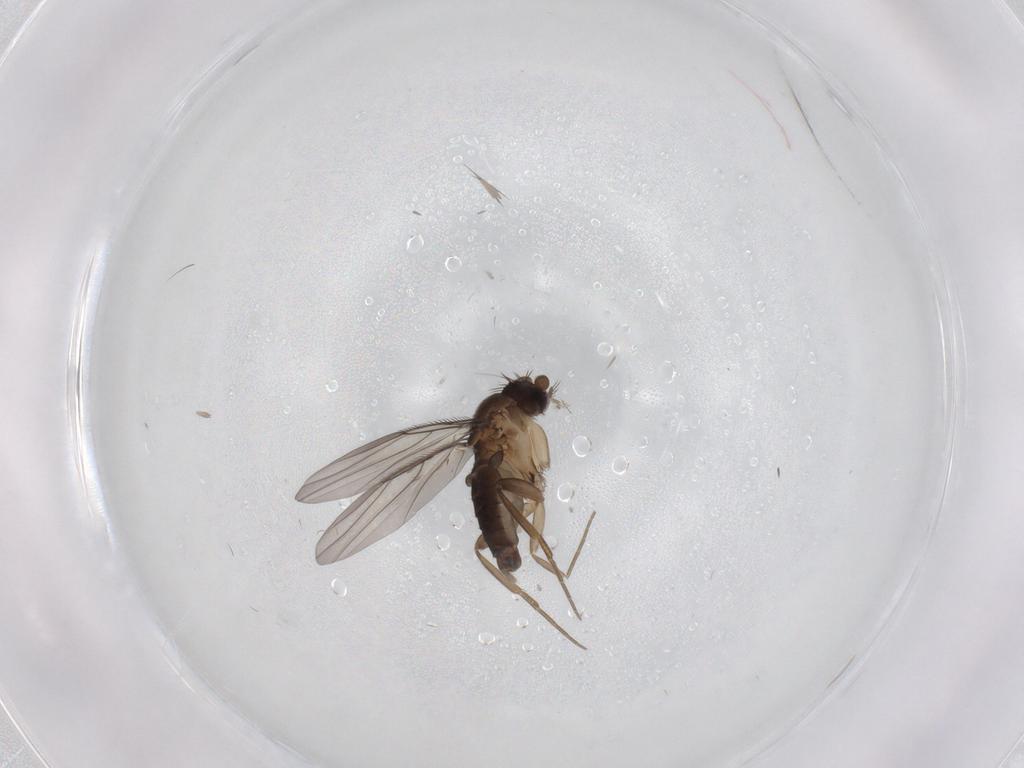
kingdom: Animalia
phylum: Arthropoda
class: Insecta
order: Diptera
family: Phoridae
